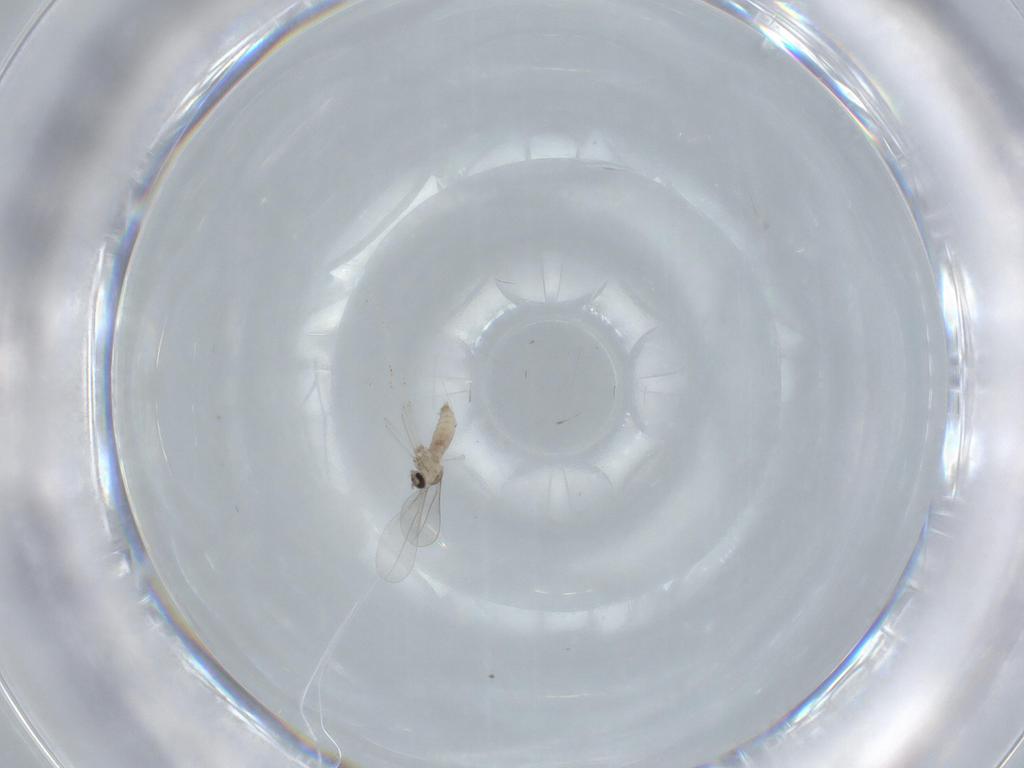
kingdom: Animalia
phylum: Arthropoda
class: Insecta
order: Diptera
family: Cecidomyiidae
